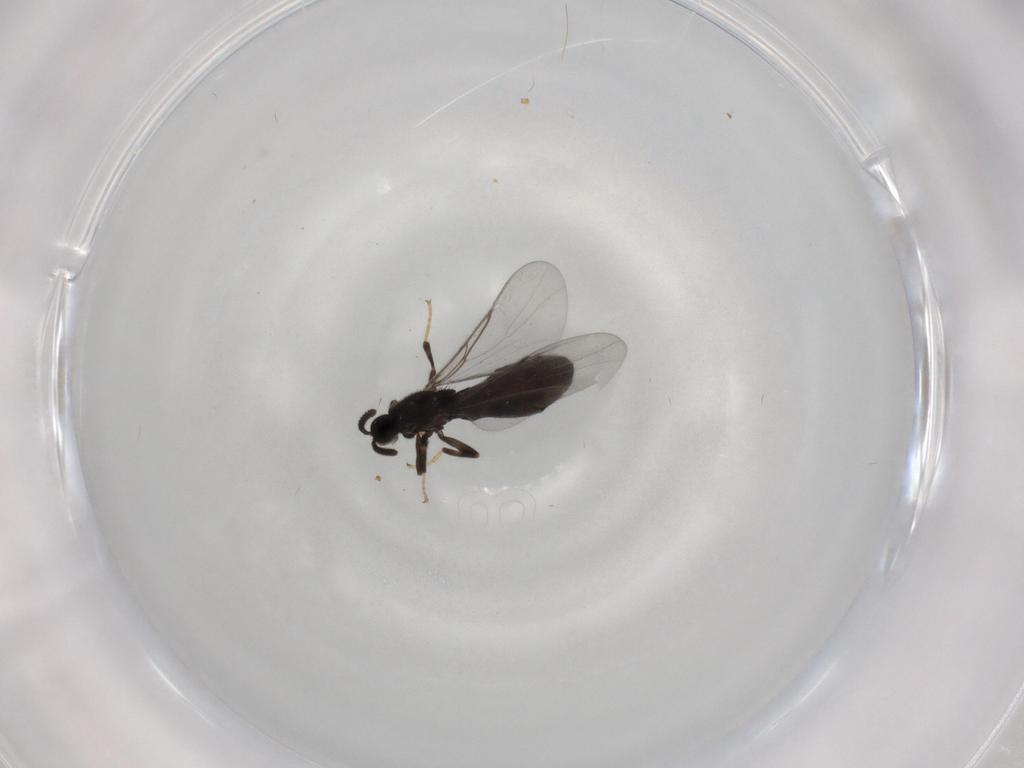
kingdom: Animalia
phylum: Arthropoda
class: Insecta
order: Diptera
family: Scatopsidae
